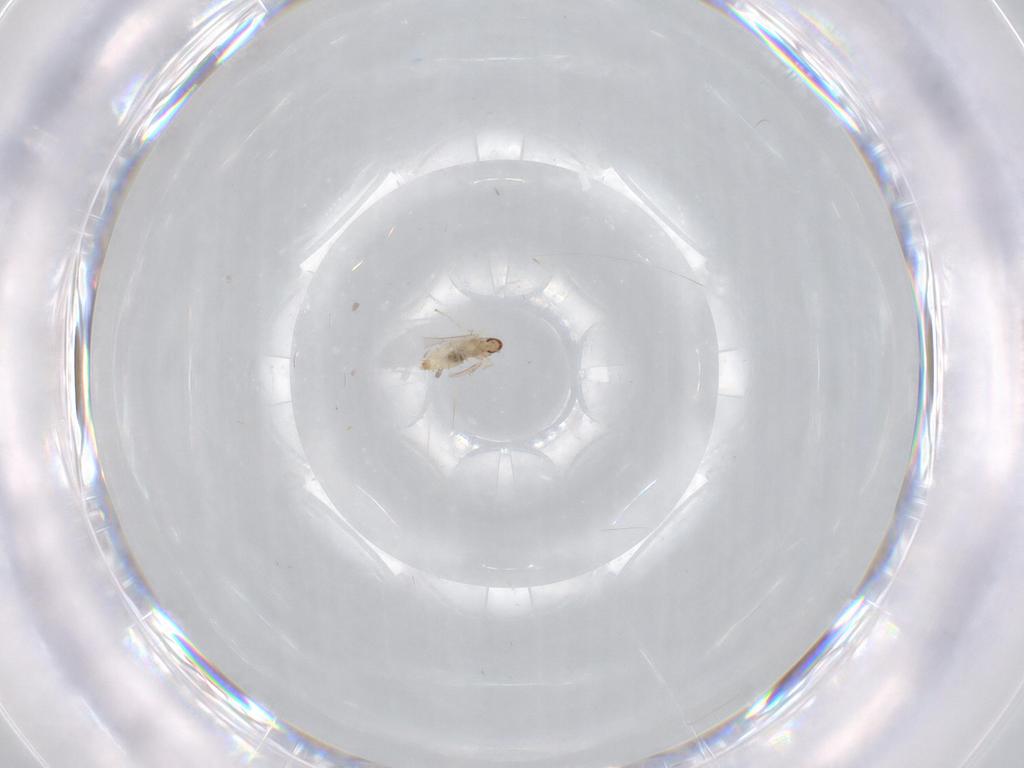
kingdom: Animalia
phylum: Arthropoda
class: Insecta
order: Diptera
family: Cecidomyiidae
